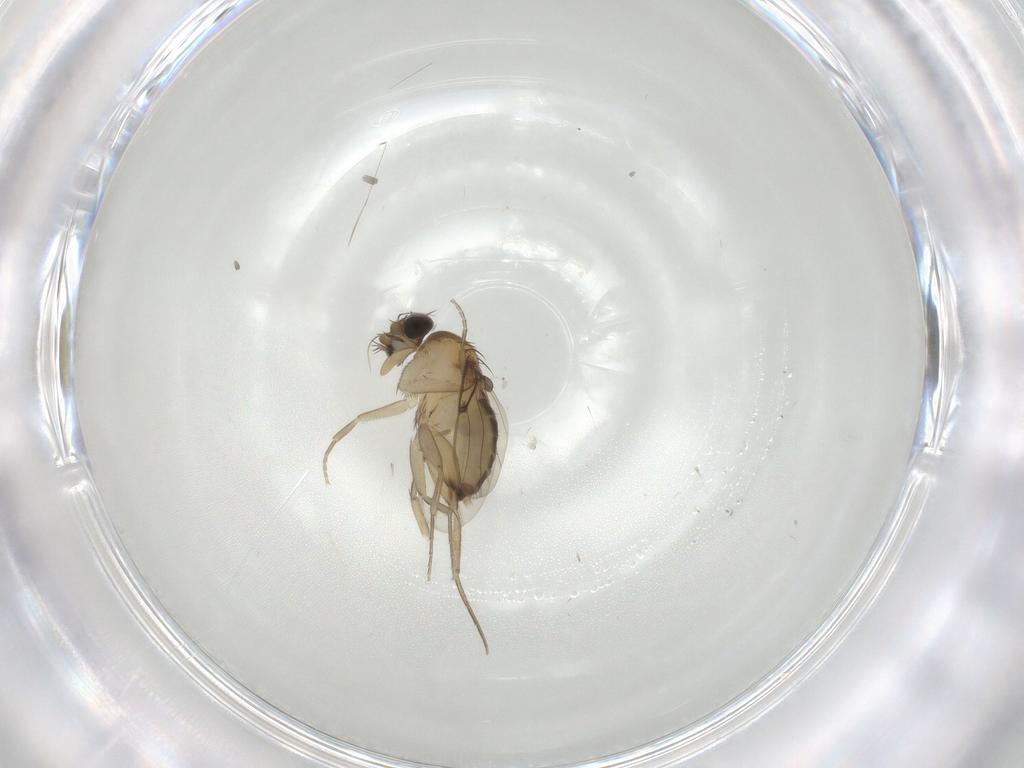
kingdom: Animalia
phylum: Arthropoda
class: Insecta
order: Diptera
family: Phoridae
